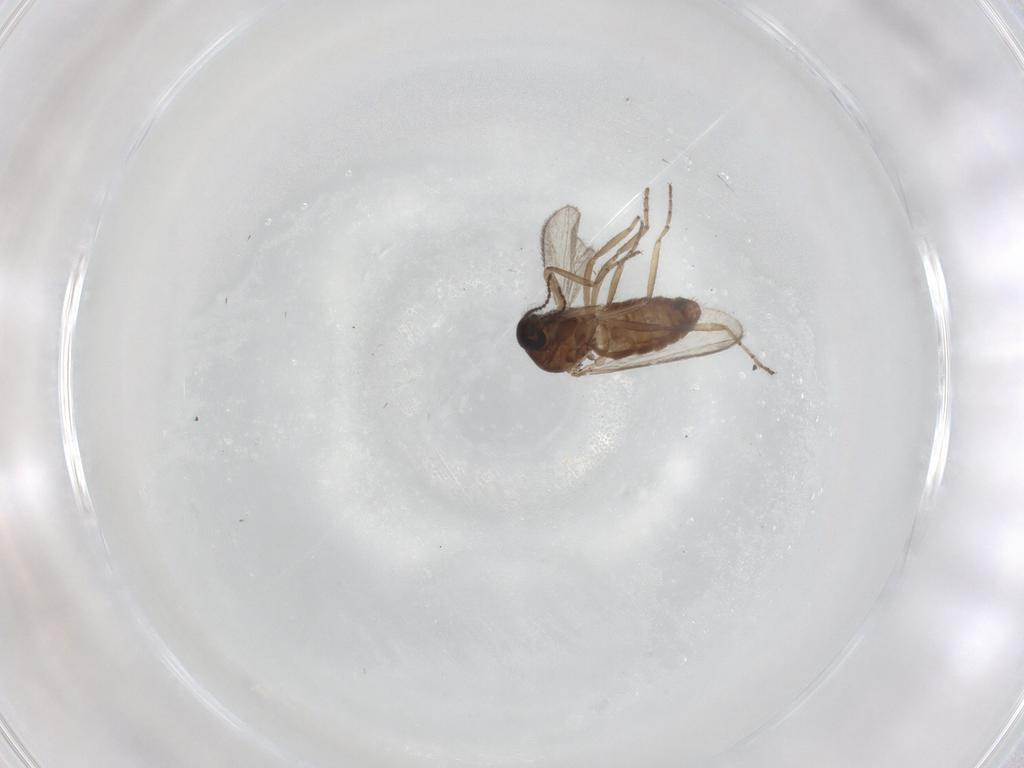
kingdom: Animalia
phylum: Arthropoda
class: Insecta
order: Diptera
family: Ceratopogonidae
